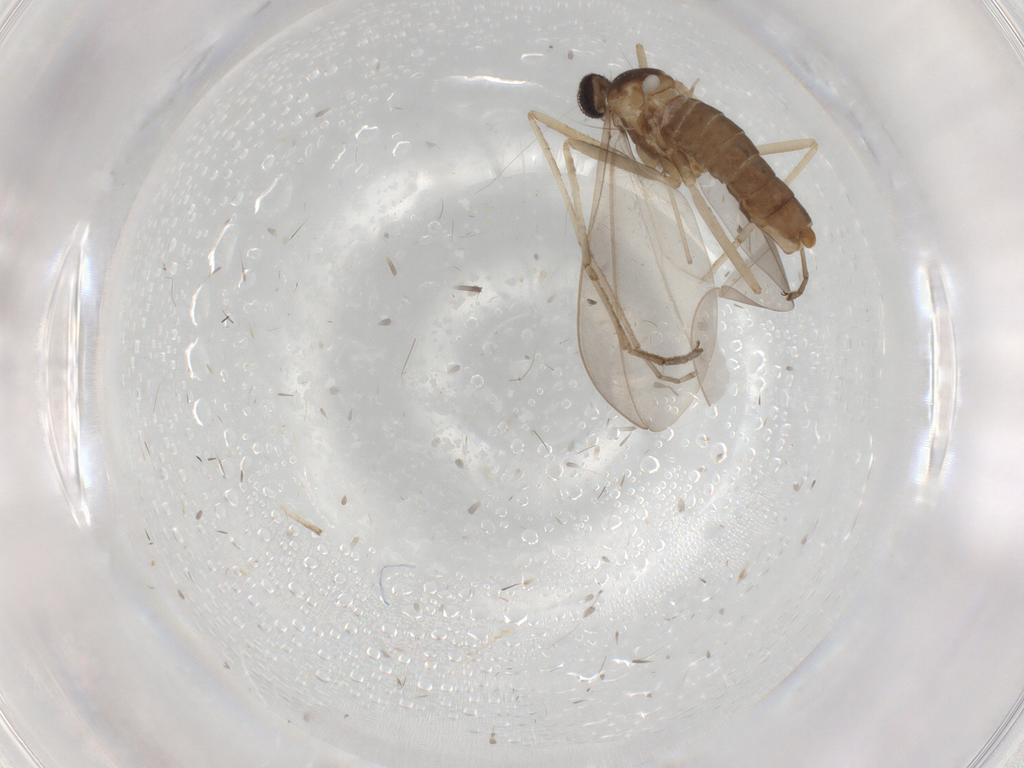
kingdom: Animalia
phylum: Arthropoda
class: Insecta
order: Diptera
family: Cecidomyiidae
